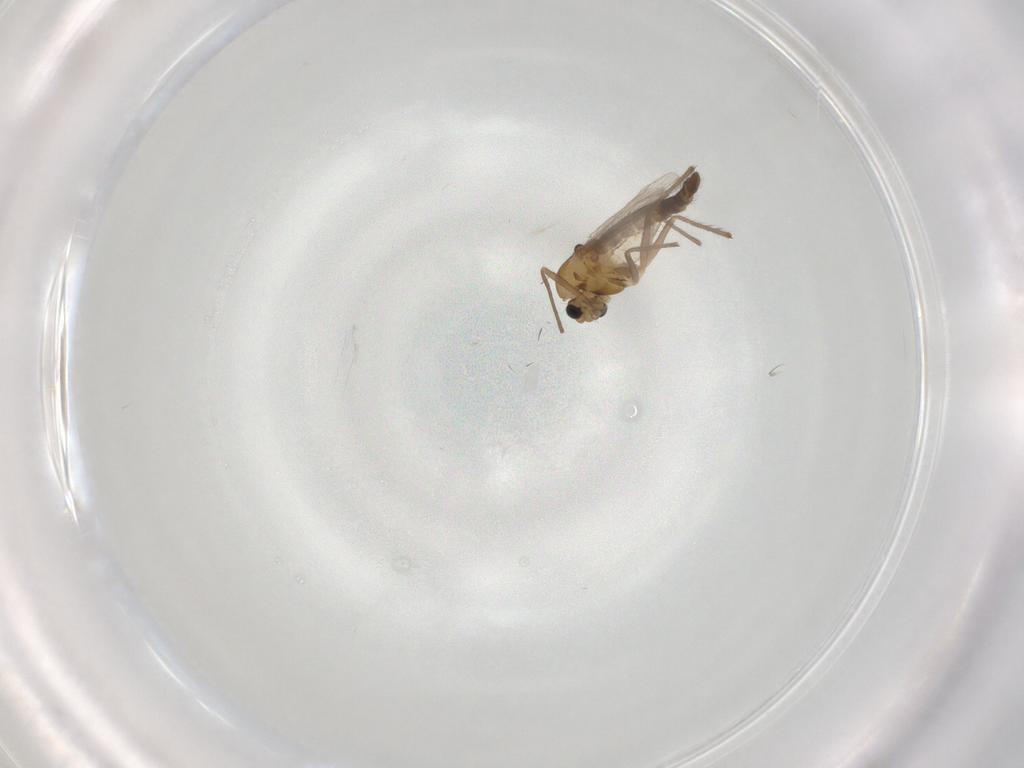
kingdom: Animalia
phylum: Arthropoda
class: Insecta
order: Diptera
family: Chironomidae
